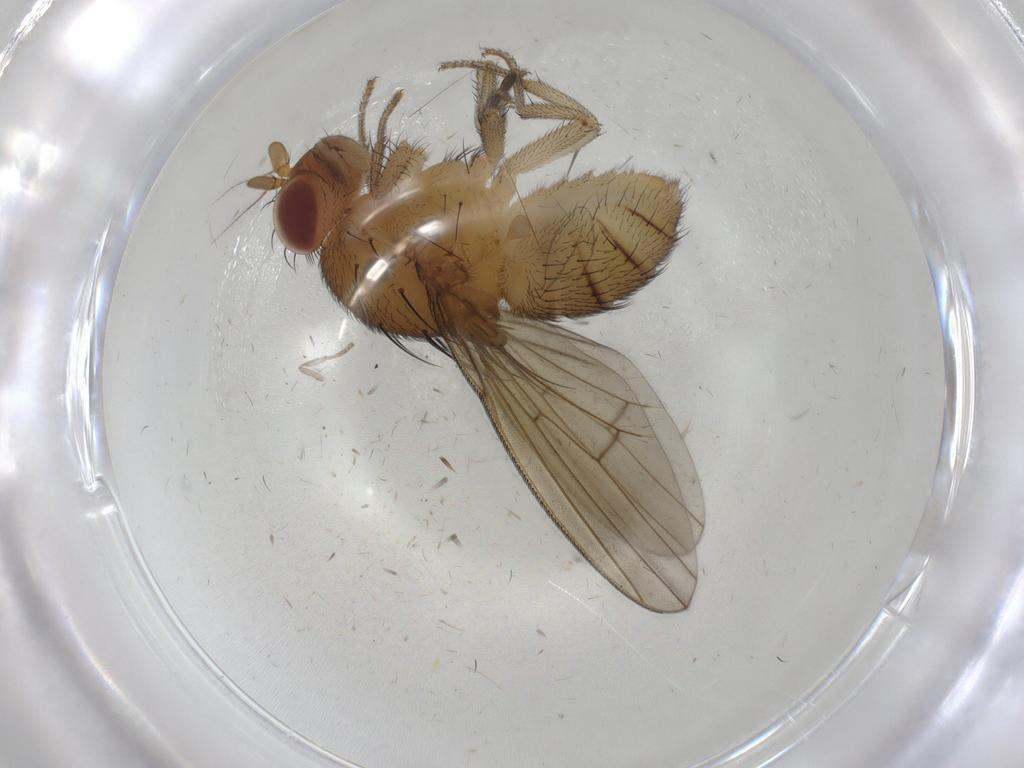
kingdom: Animalia
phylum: Arthropoda
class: Insecta
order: Diptera
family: Psychodidae
